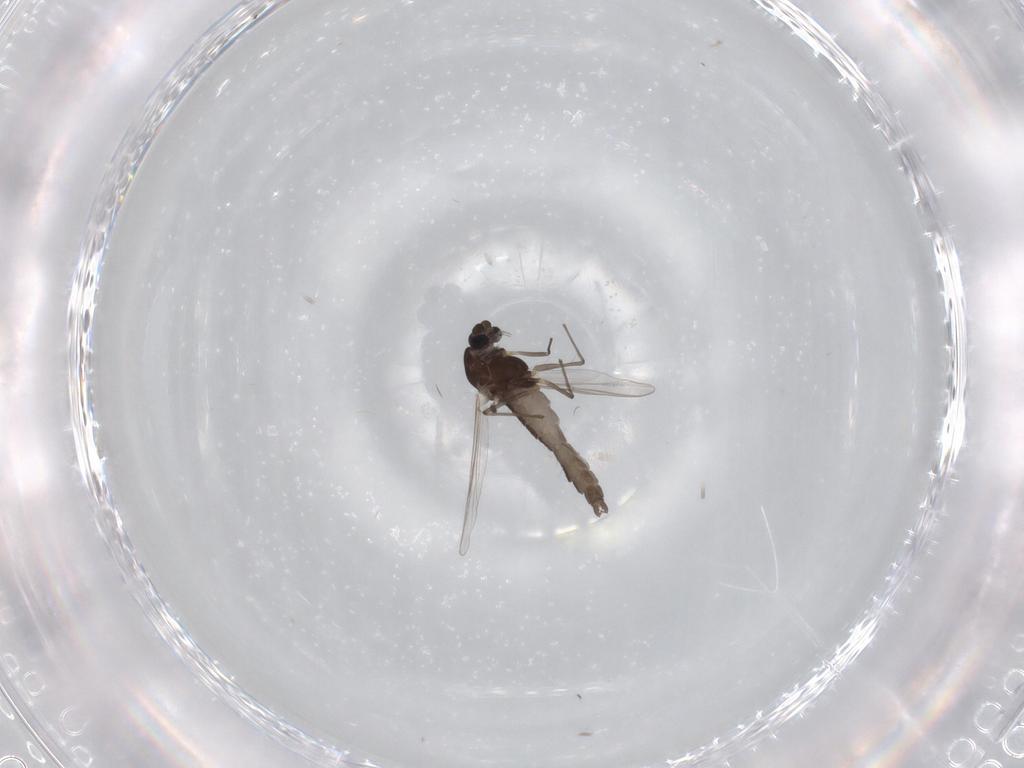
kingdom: Animalia
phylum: Arthropoda
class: Insecta
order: Diptera
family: Chironomidae
